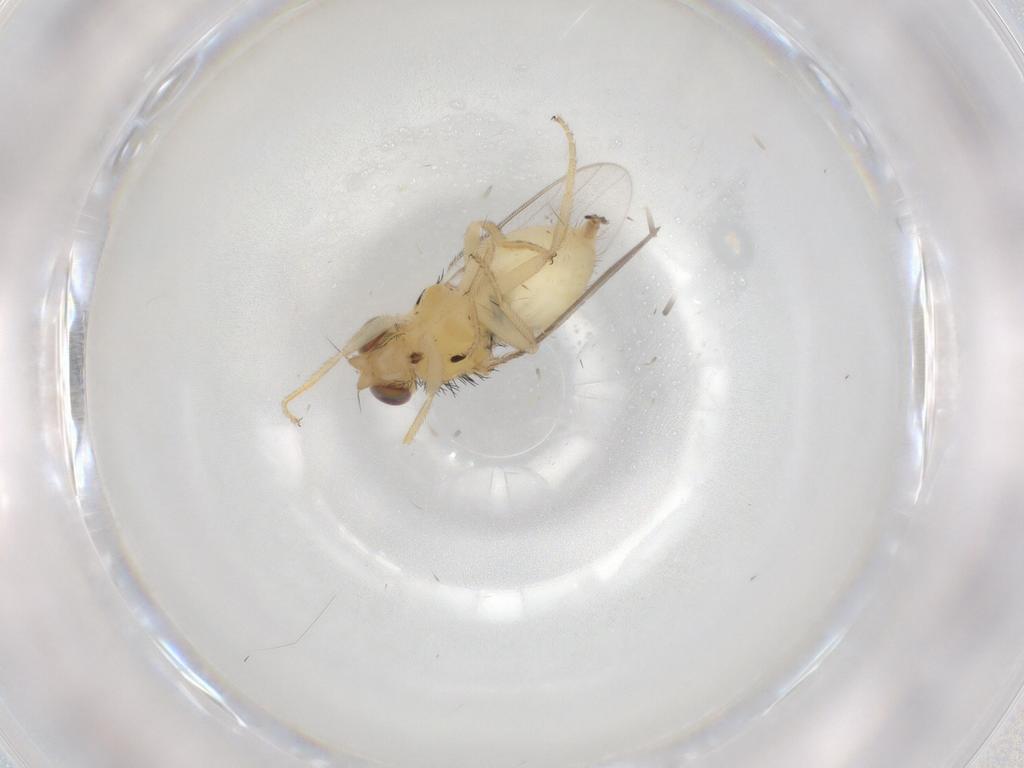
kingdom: Animalia
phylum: Arthropoda
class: Insecta
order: Diptera
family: Chloropidae
